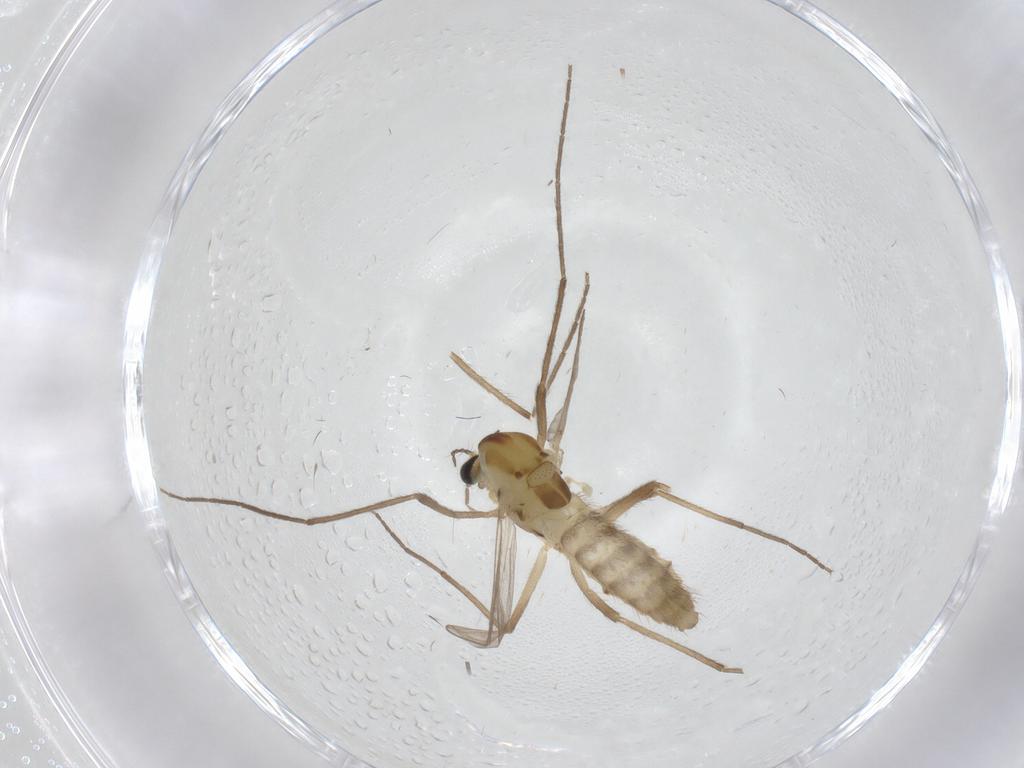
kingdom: Animalia
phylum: Arthropoda
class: Insecta
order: Diptera
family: Chironomidae
